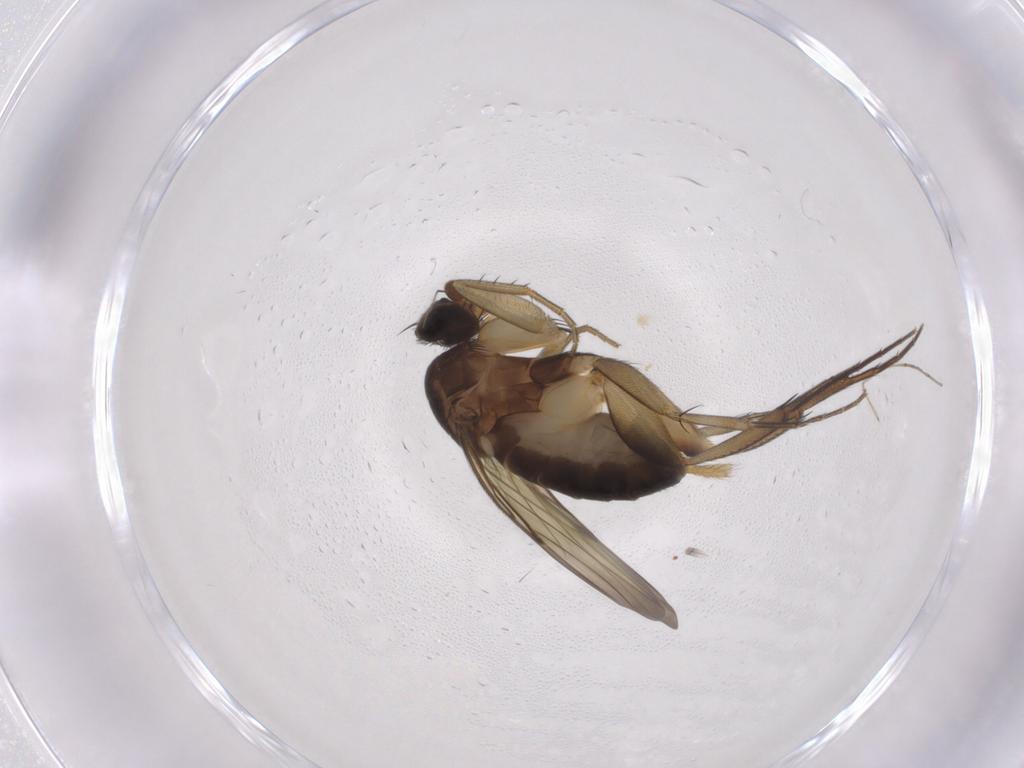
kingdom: Animalia
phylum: Arthropoda
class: Insecta
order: Diptera
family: Phoridae
